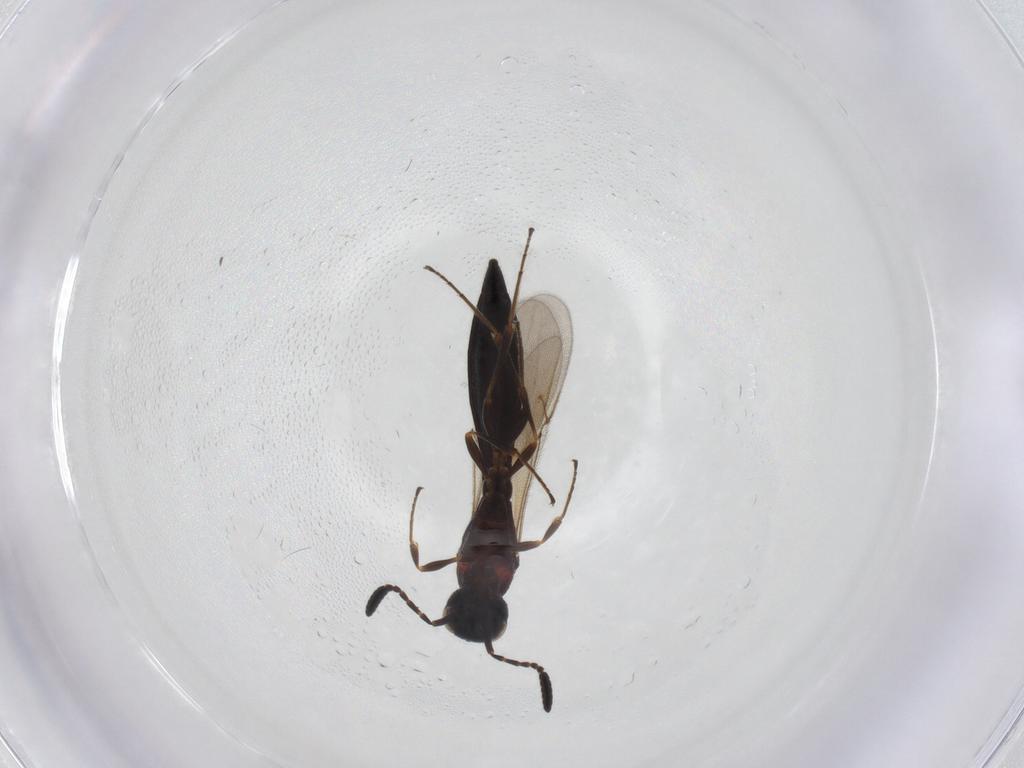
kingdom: Animalia
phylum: Arthropoda
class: Insecta
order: Hymenoptera
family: Scelionidae
